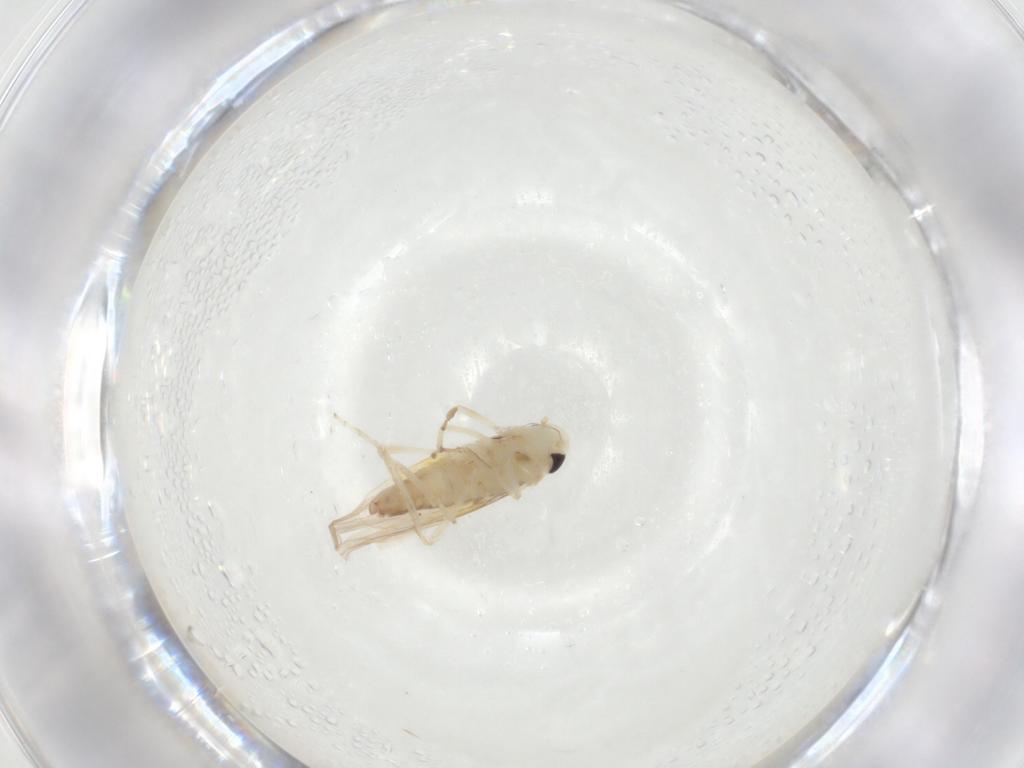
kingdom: Animalia
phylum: Arthropoda
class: Insecta
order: Hemiptera
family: Cicadellidae
